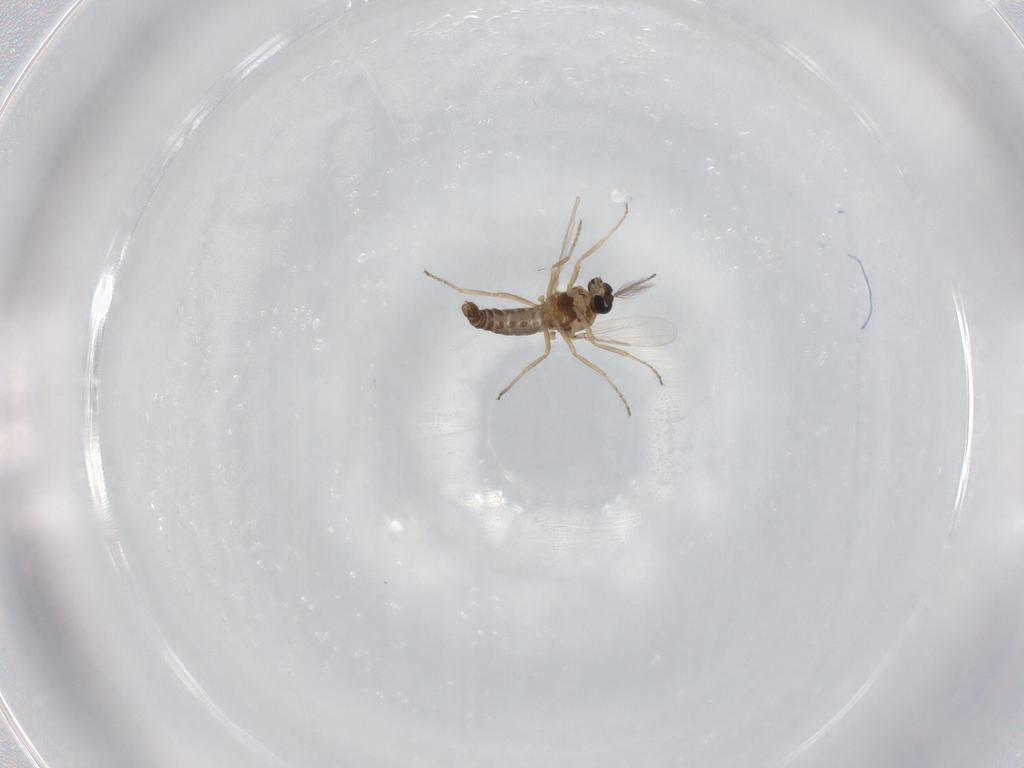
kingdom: Animalia
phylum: Arthropoda
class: Insecta
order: Diptera
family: Ceratopogonidae
